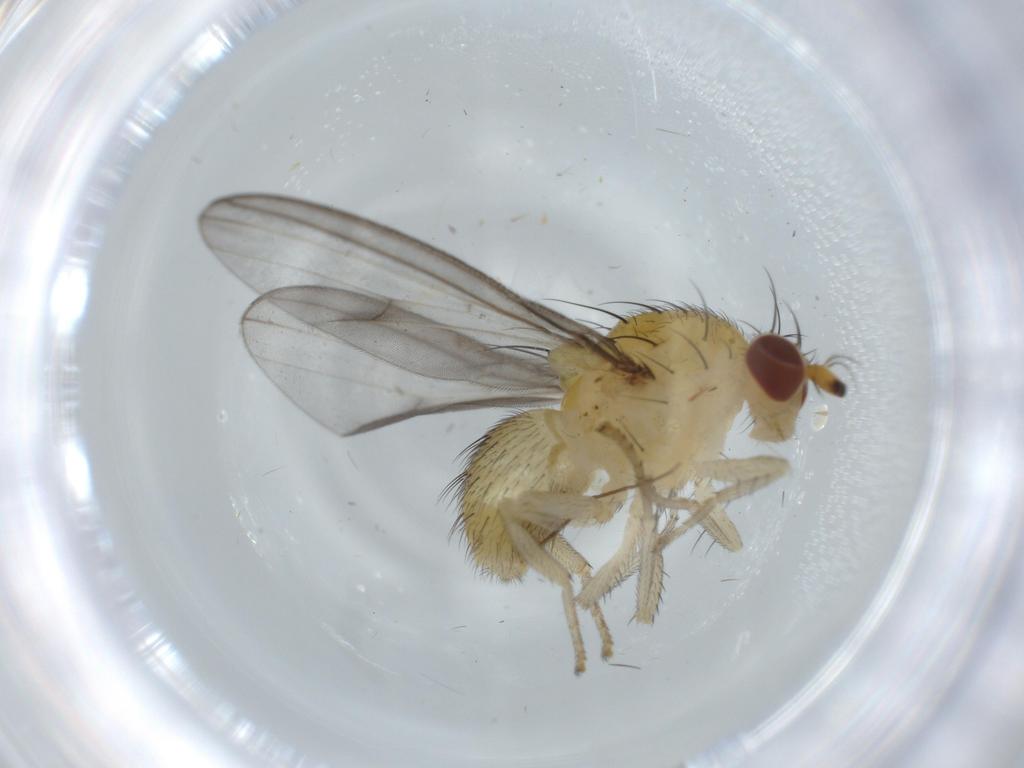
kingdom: Animalia
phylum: Arthropoda
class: Insecta
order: Diptera
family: Lauxaniidae
